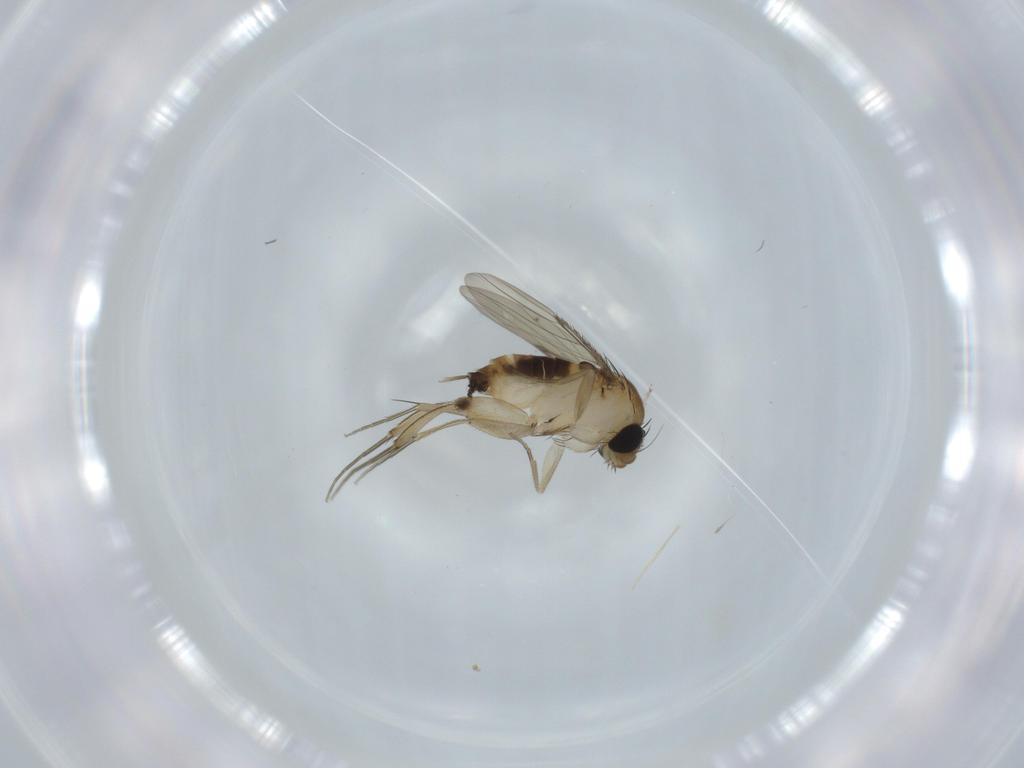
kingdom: Animalia
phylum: Arthropoda
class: Insecta
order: Diptera
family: Phoridae
